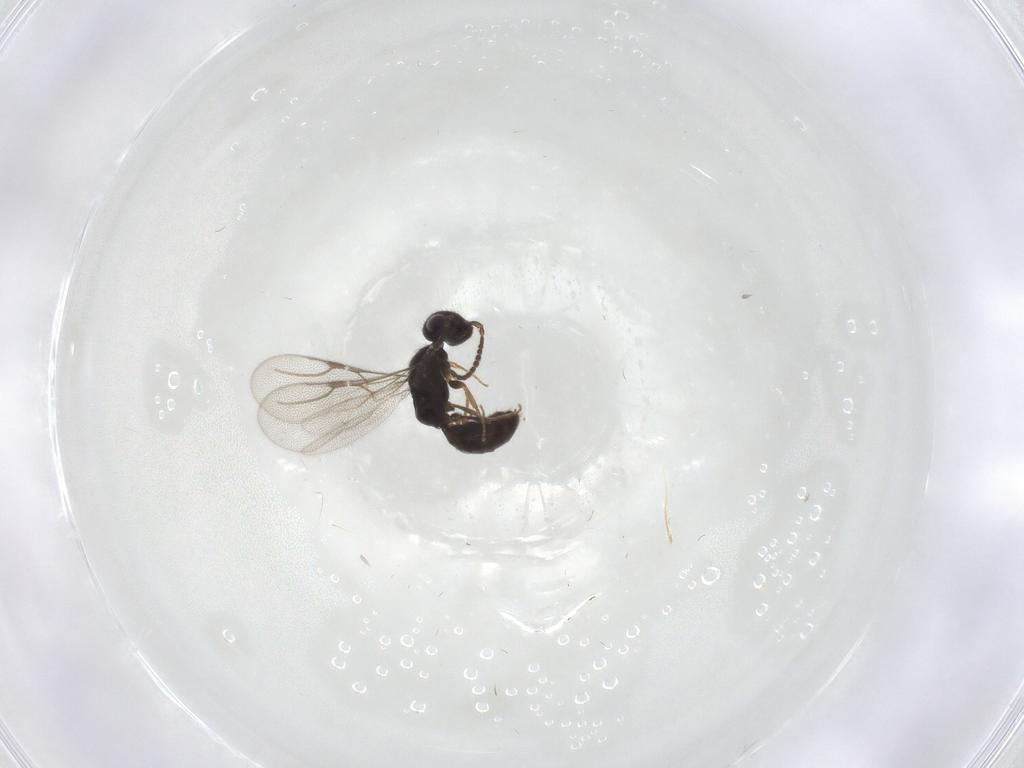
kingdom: Animalia
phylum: Arthropoda
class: Insecta
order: Hymenoptera
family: Bethylidae
